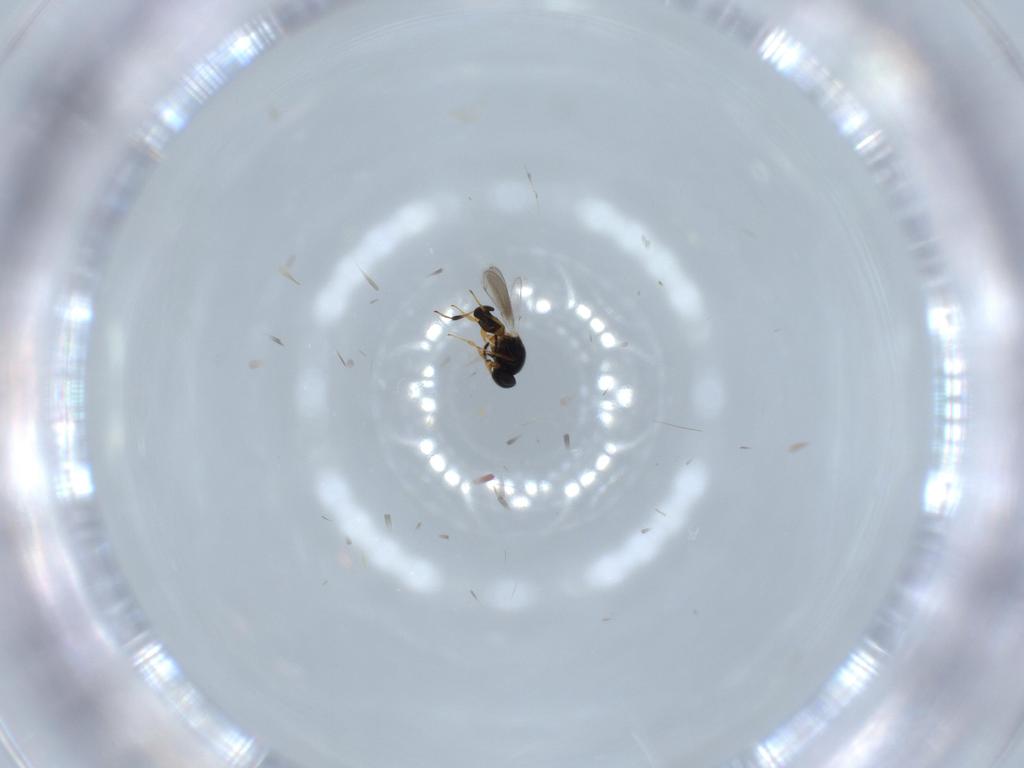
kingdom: Animalia
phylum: Arthropoda
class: Insecta
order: Hymenoptera
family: Platygastridae
